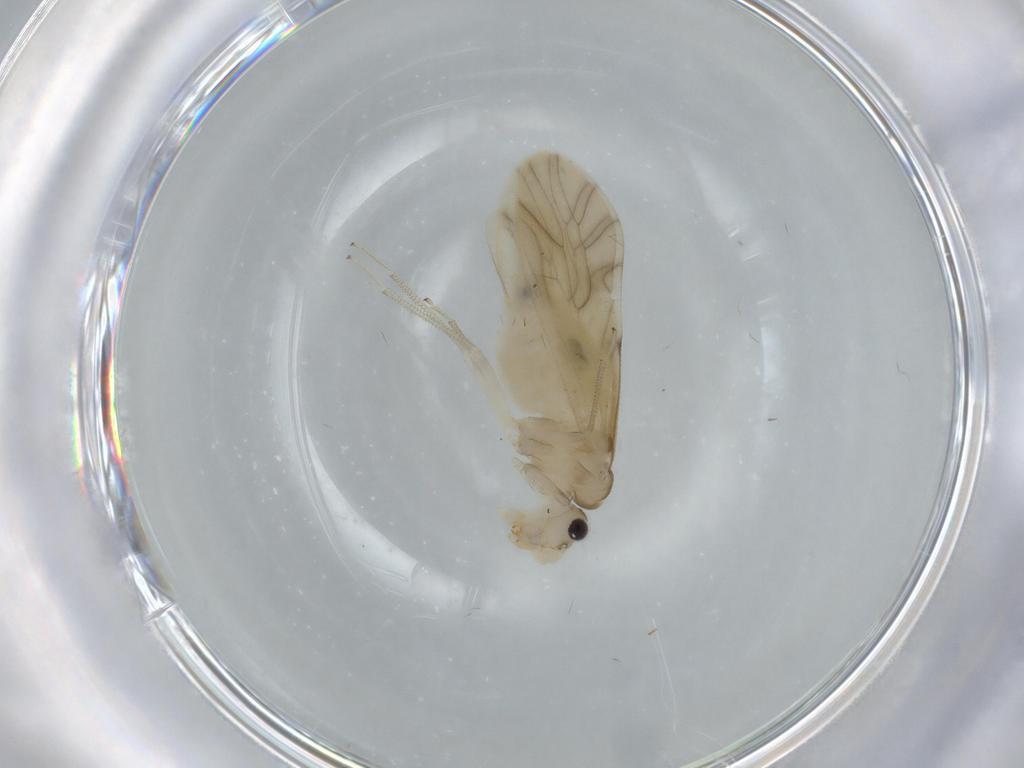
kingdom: Animalia
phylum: Arthropoda
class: Insecta
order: Psocodea
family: Caeciliusidae
